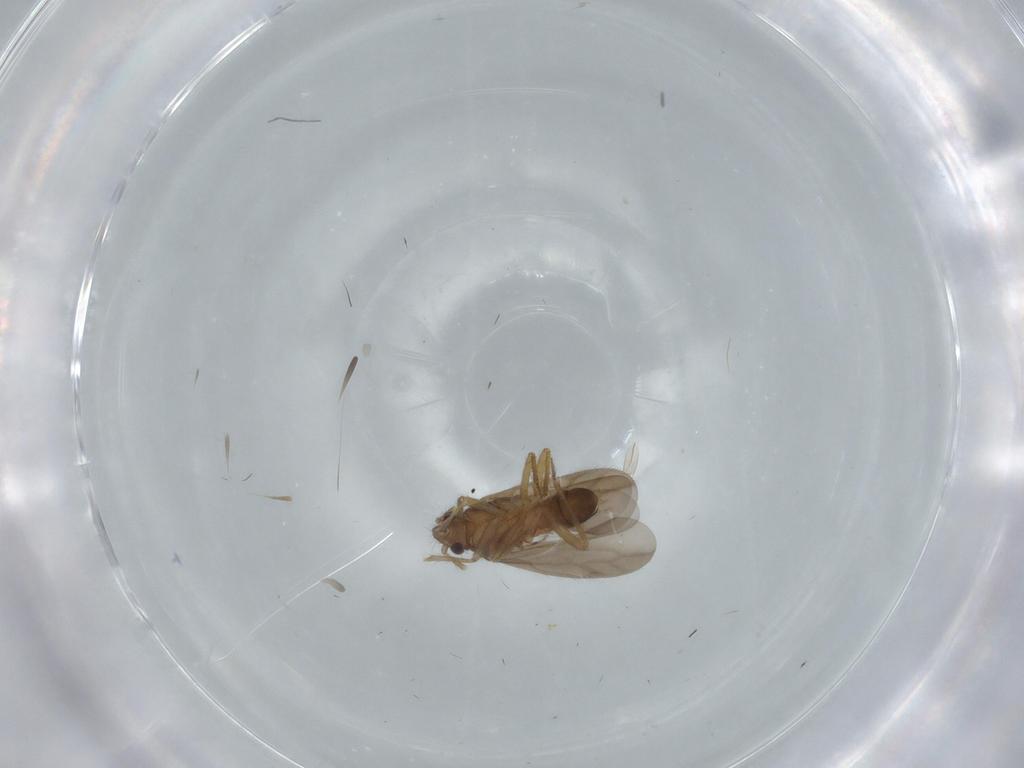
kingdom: Animalia
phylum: Arthropoda
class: Insecta
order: Hemiptera
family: Ceratocombidae
